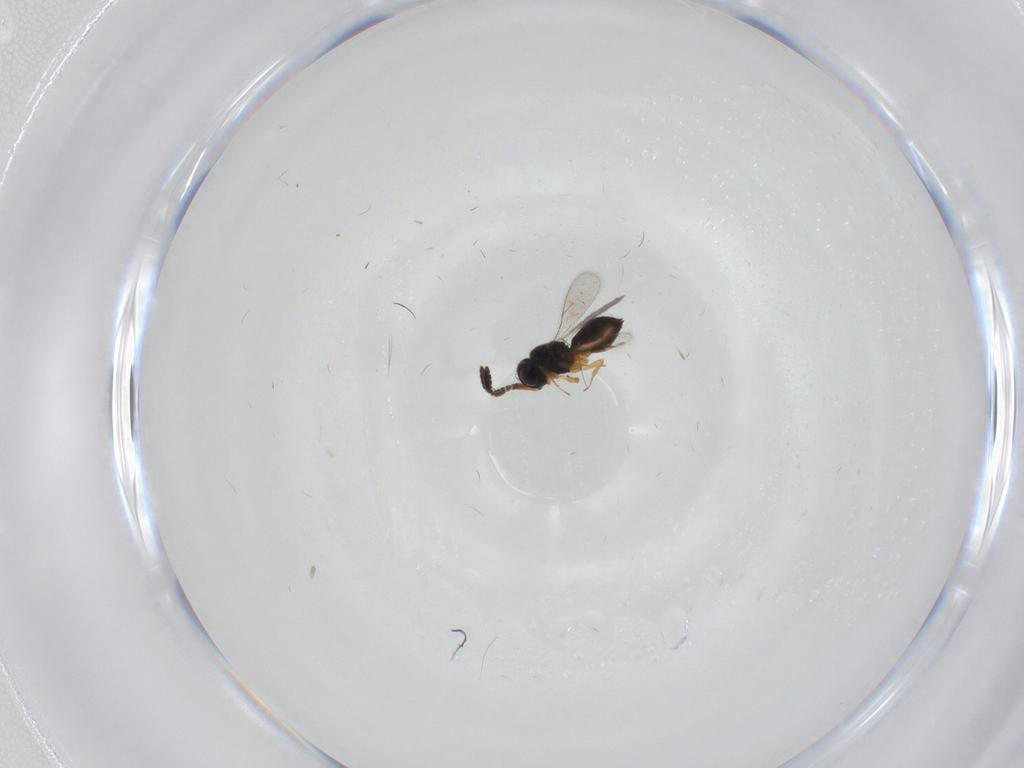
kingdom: Animalia
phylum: Arthropoda
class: Insecta
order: Hymenoptera
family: Scelionidae
